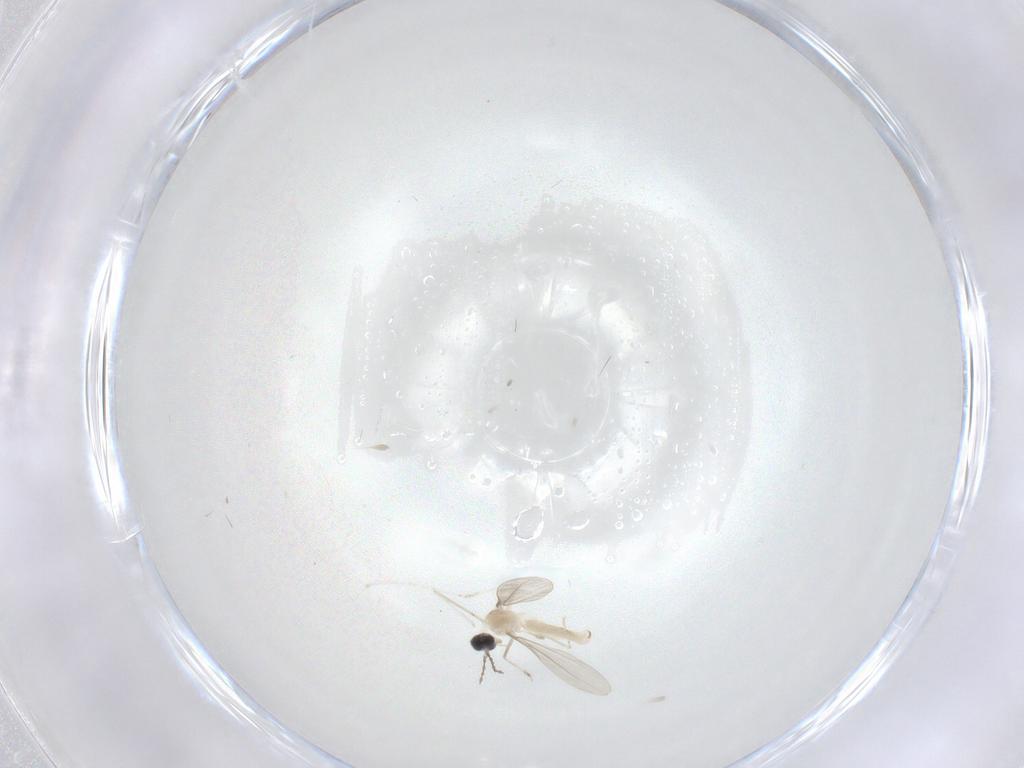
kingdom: Animalia
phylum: Arthropoda
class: Insecta
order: Diptera
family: Chironomidae
